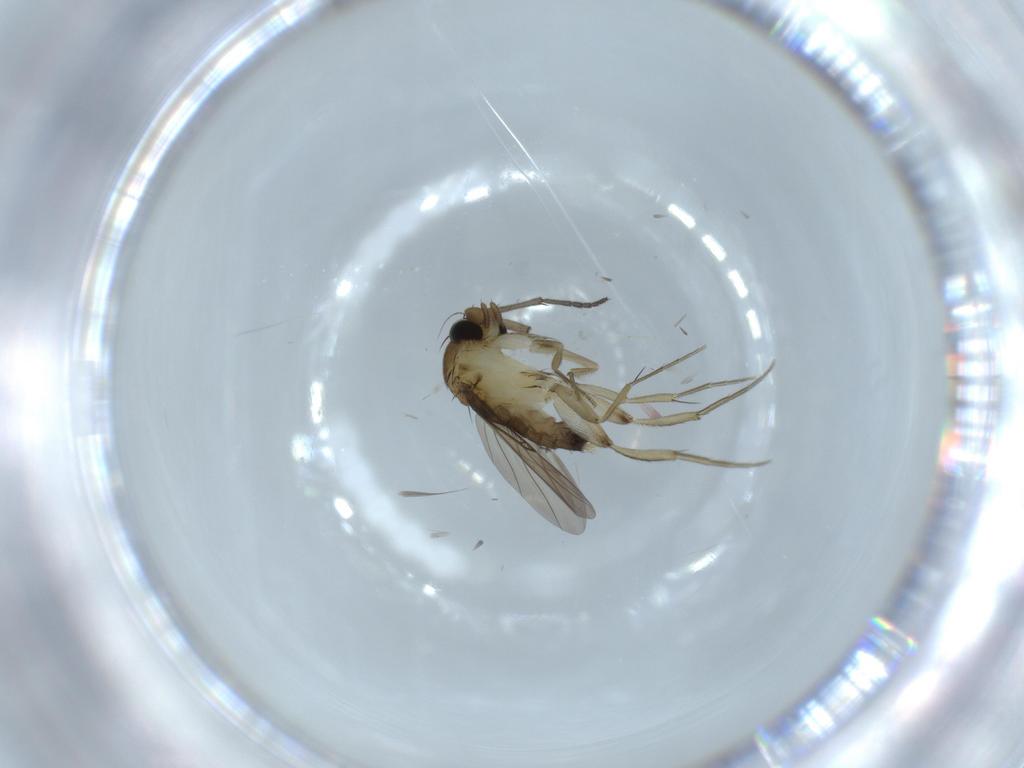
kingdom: Animalia
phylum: Arthropoda
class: Insecta
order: Diptera
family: Phoridae
